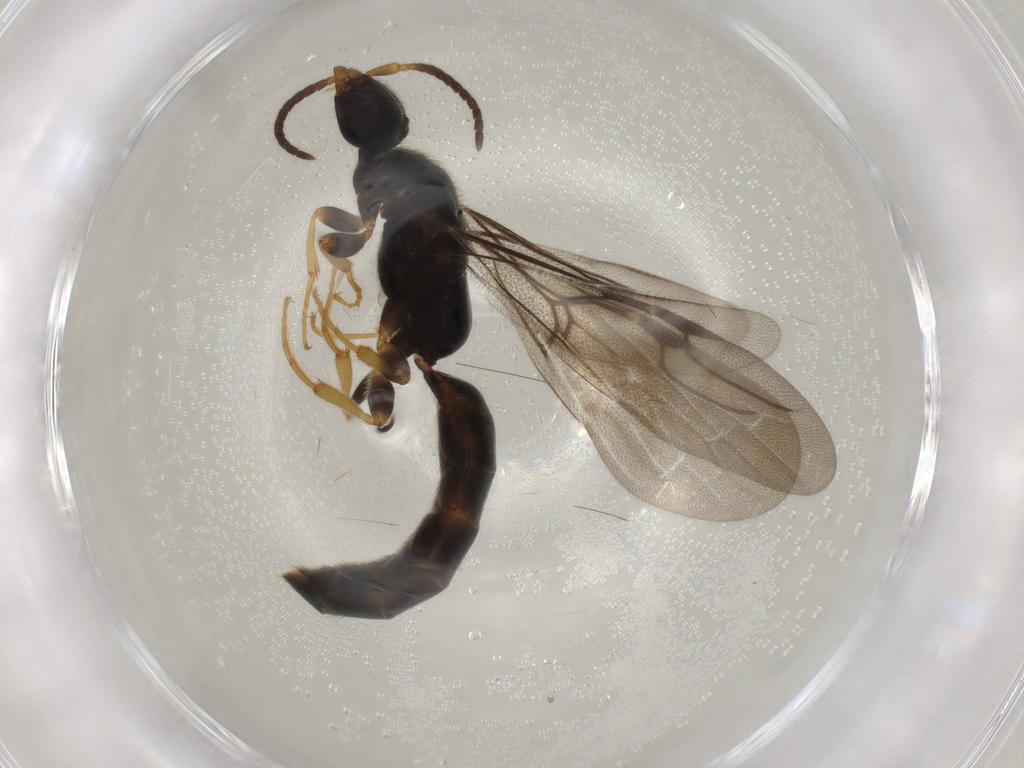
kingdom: Animalia
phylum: Arthropoda
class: Insecta
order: Hymenoptera
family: Bethylidae
